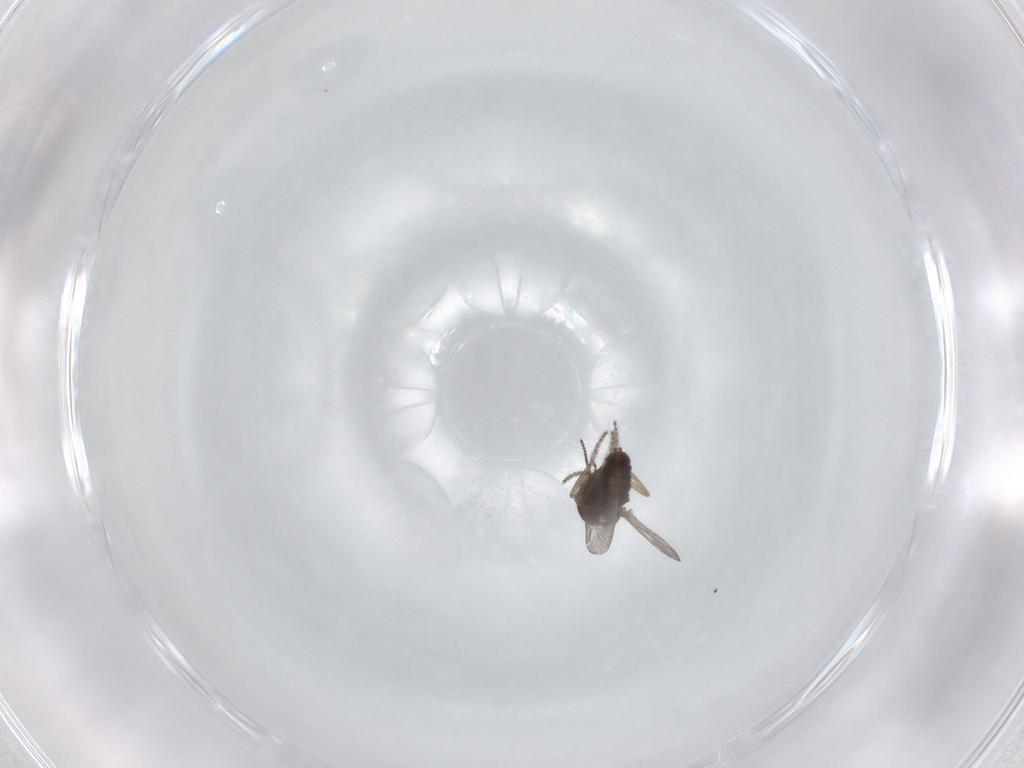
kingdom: Animalia
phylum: Arthropoda
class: Insecta
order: Diptera
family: Ceratopogonidae
